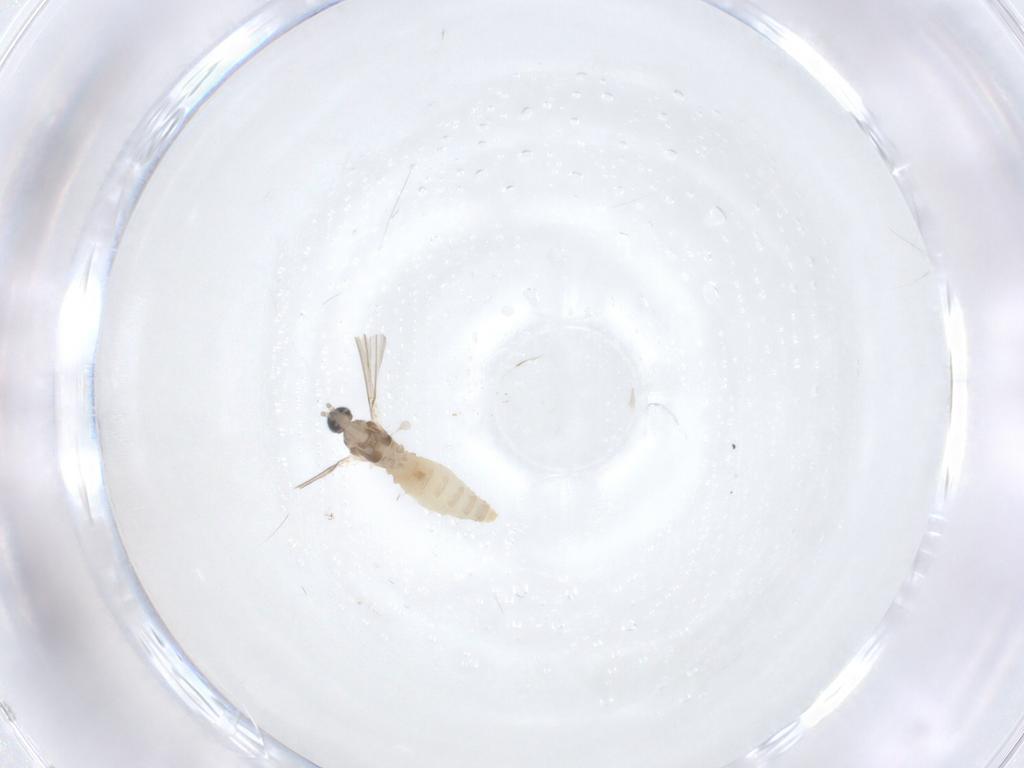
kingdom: Animalia
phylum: Arthropoda
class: Insecta
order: Diptera
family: Cecidomyiidae
